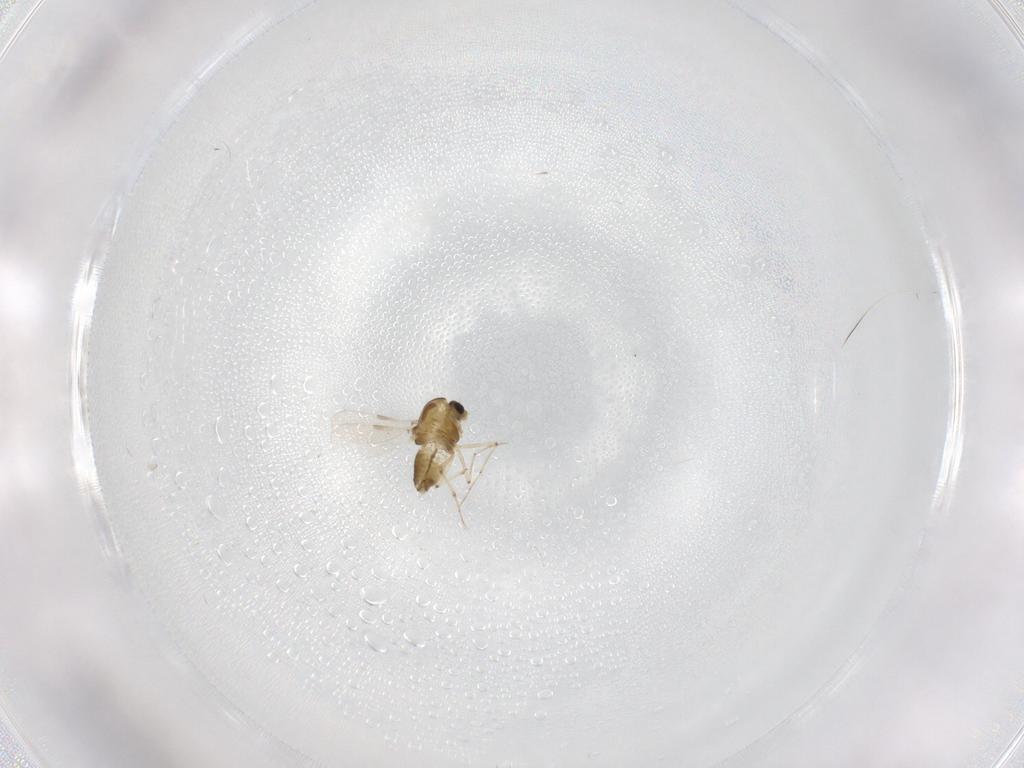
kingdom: Animalia
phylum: Arthropoda
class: Insecta
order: Diptera
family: Chironomidae
